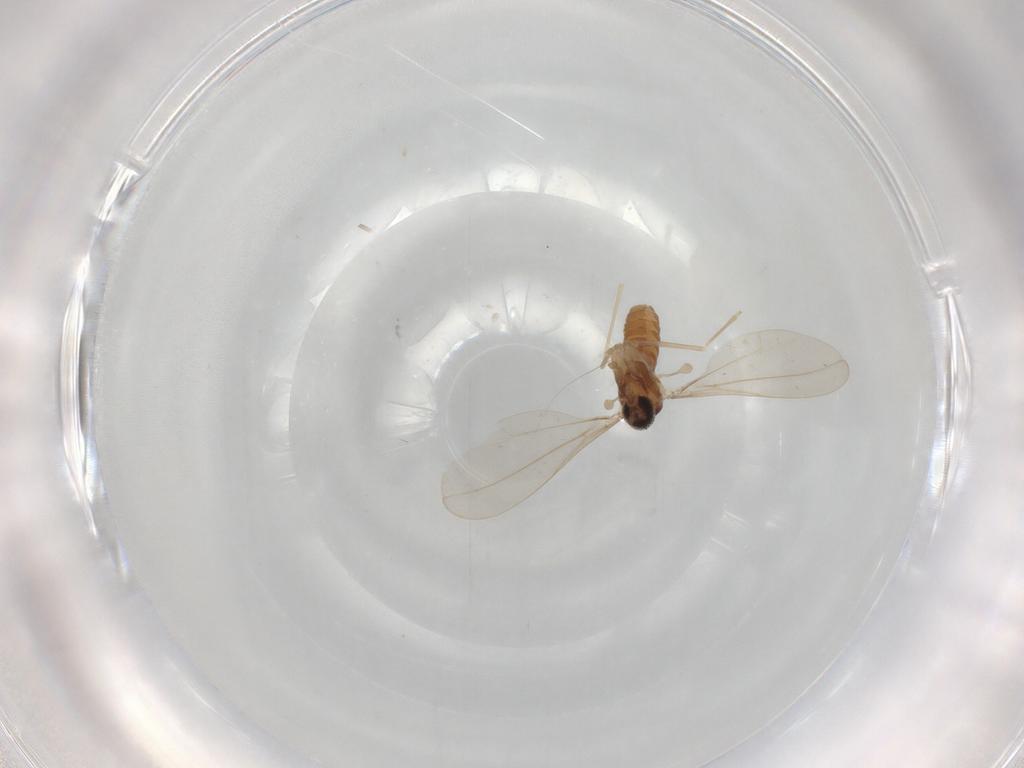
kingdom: Animalia
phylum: Arthropoda
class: Insecta
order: Diptera
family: Cecidomyiidae
